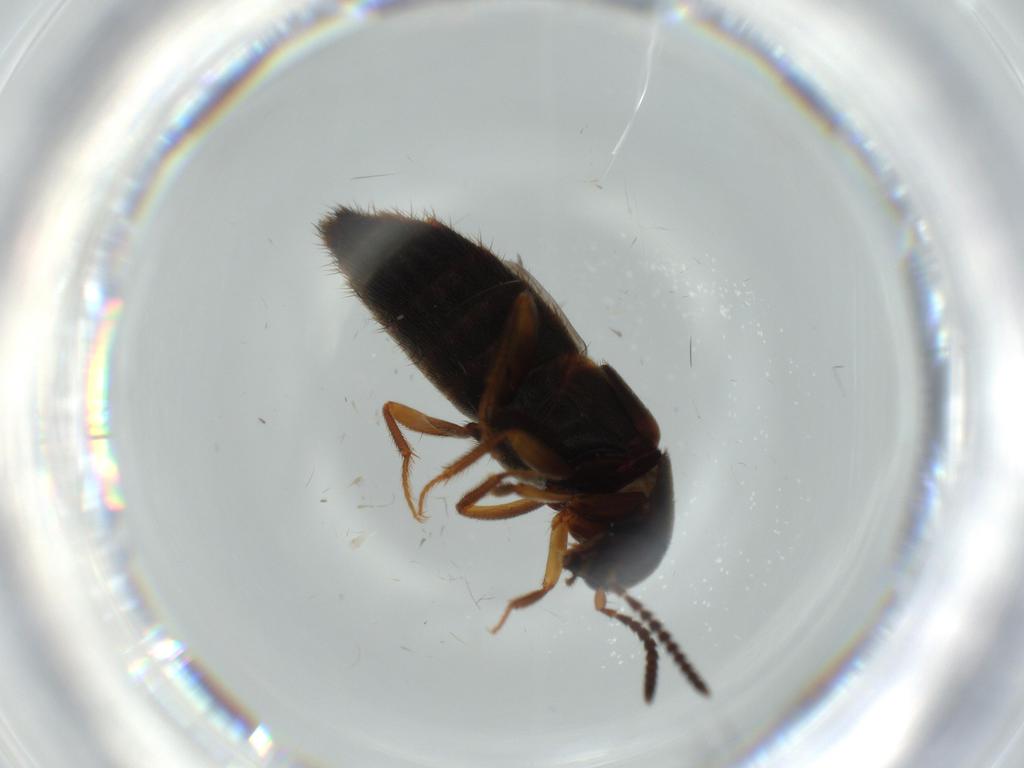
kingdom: Animalia
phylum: Arthropoda
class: Insecta
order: Coleoptera
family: Staphylinidae
